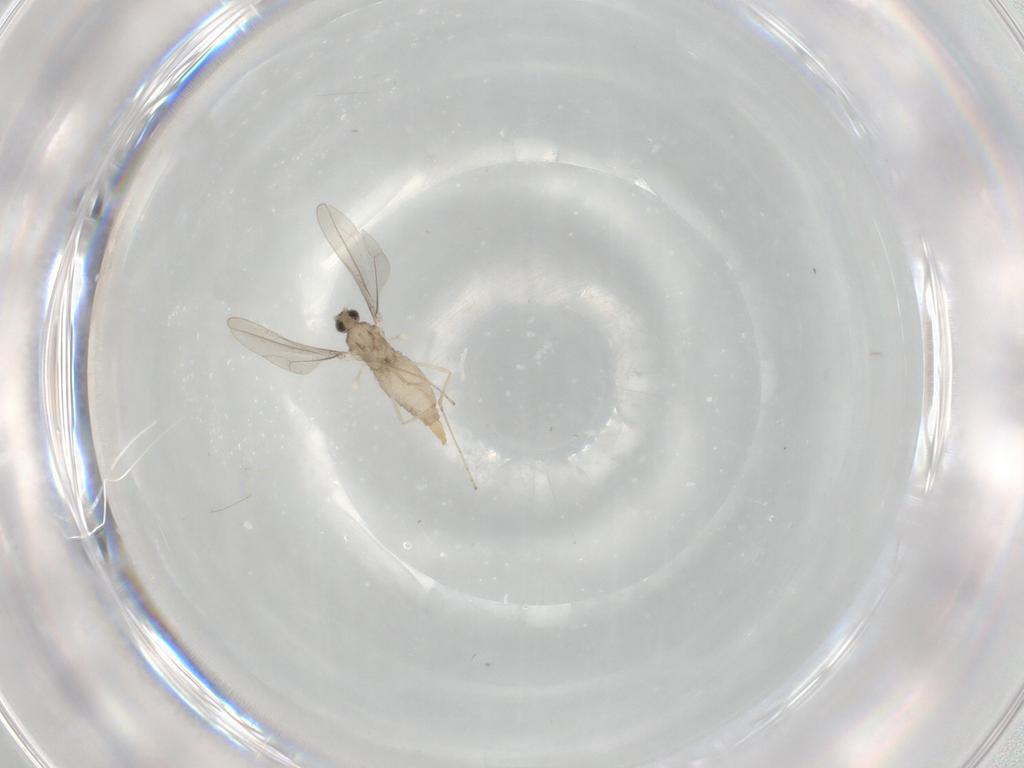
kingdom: Animalia
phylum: Arthropoda
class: Insecta
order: Diptera
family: Cecidomyiidae
